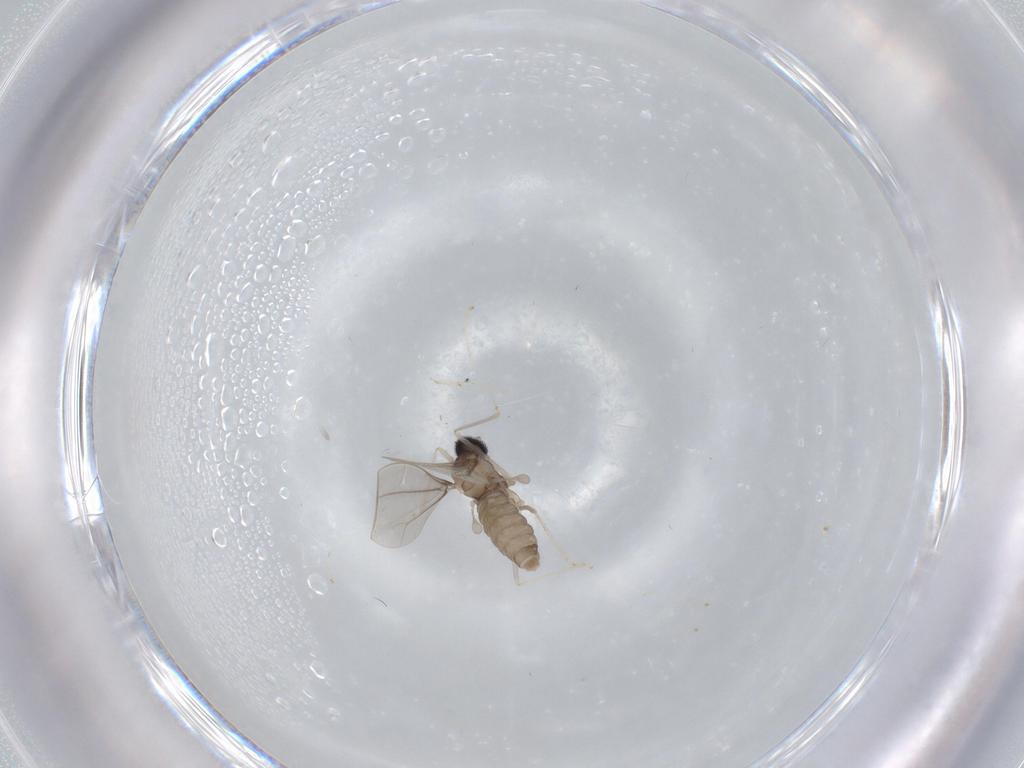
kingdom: Animalia
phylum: Arthropoda
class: Insecta
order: Diptera
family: Cecidomyiidae
